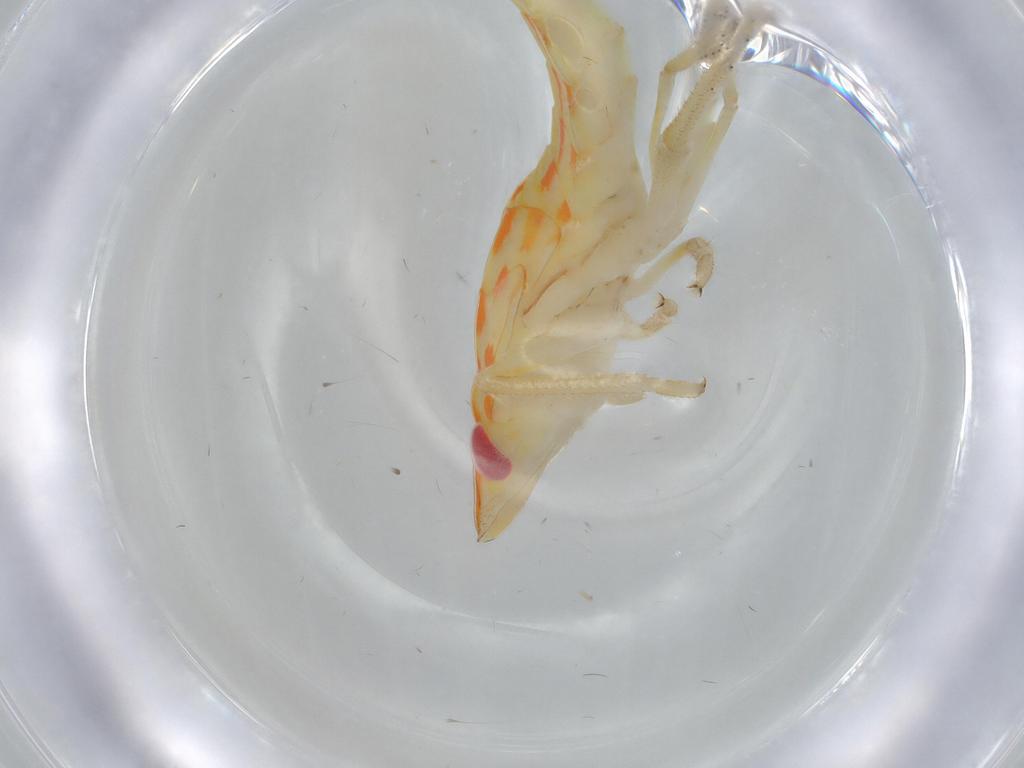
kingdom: Animalia
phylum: Arthropoda
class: Insecta
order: Hemiptera
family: Tropiduchidae
